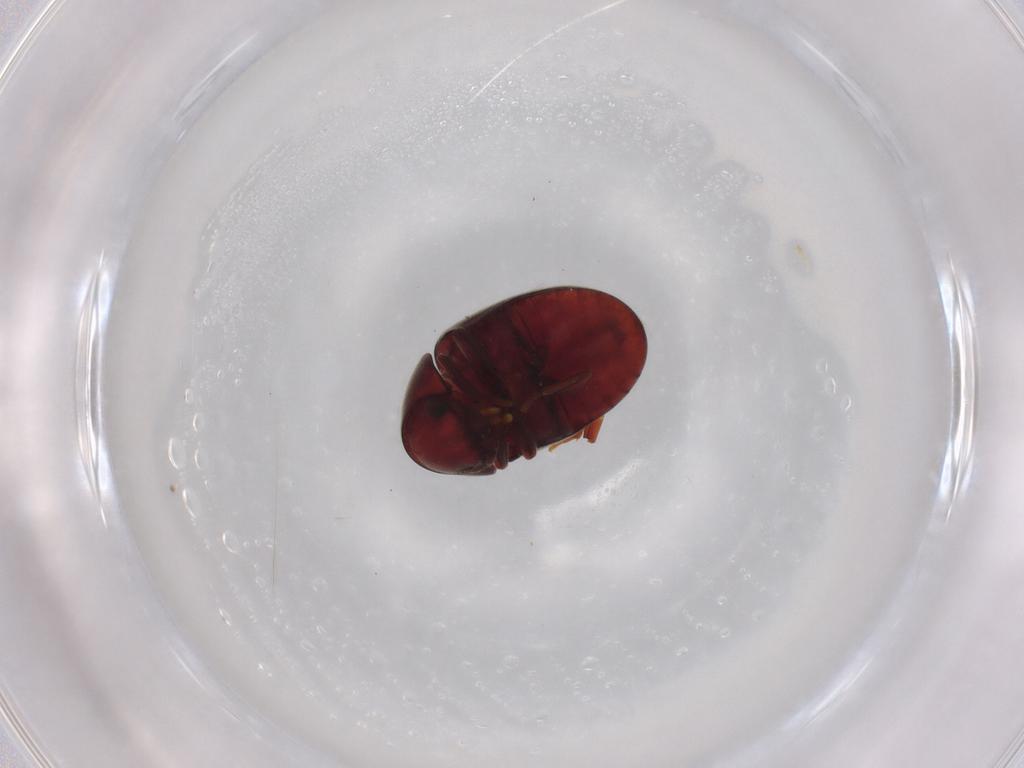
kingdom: Animalia
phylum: Arthropoda
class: Insecta
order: Coleoptera
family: Ptinidae
